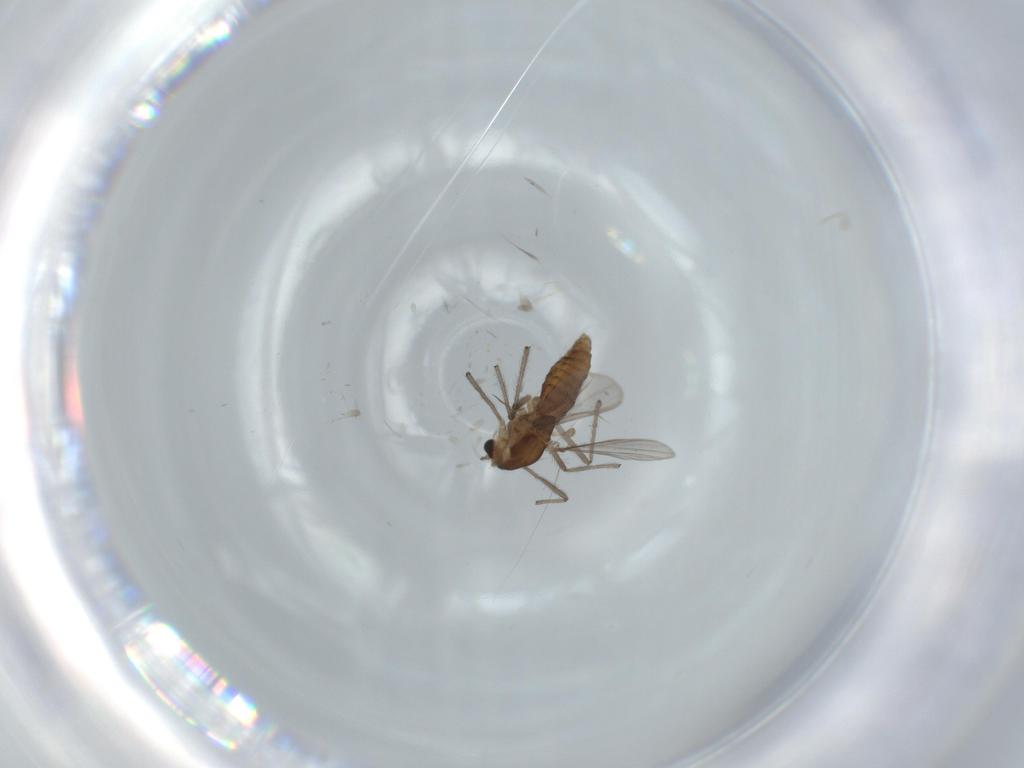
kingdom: Animalia
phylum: Arthropoda
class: Insecta
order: Diptera
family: Chironomidae
